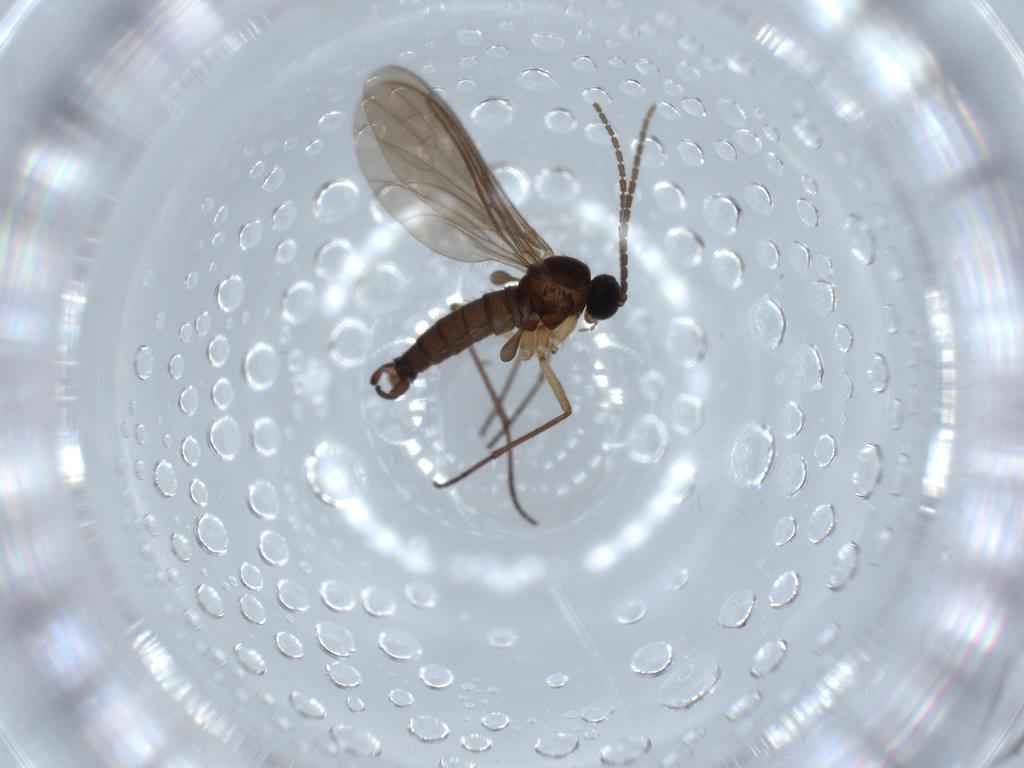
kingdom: Animalia
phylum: Arthropoda
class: Insecta
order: Diptera
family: Sciaridae
